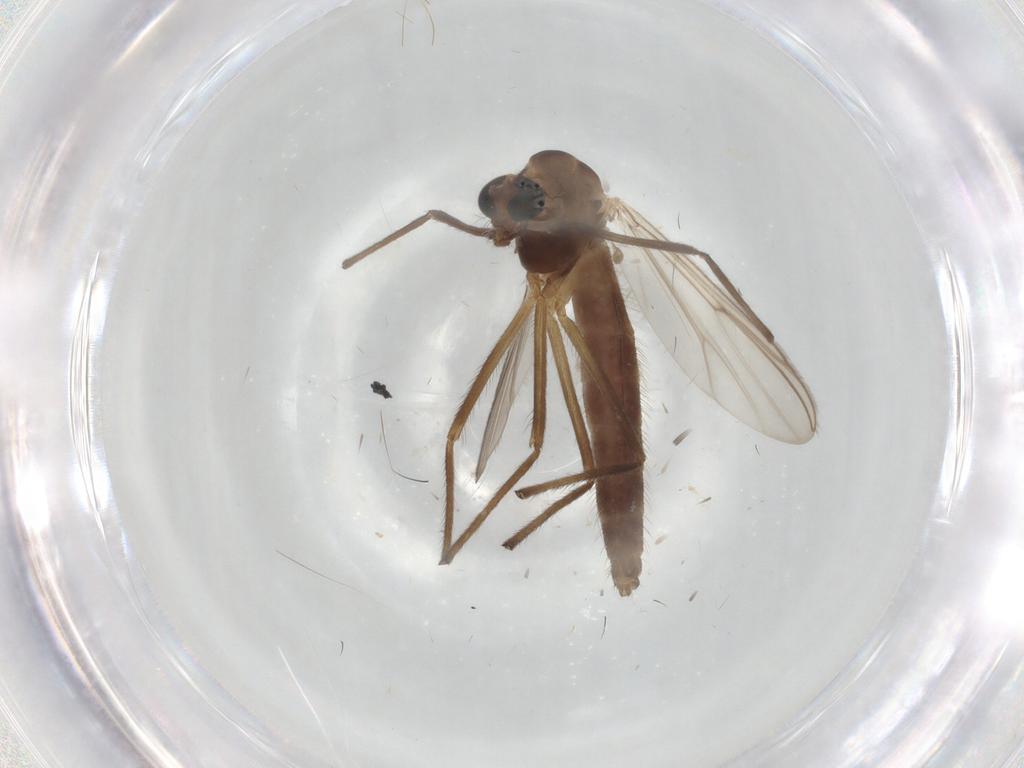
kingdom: Animalia
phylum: Arthropoda
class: Insecta
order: Diptera
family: Chironomidae
